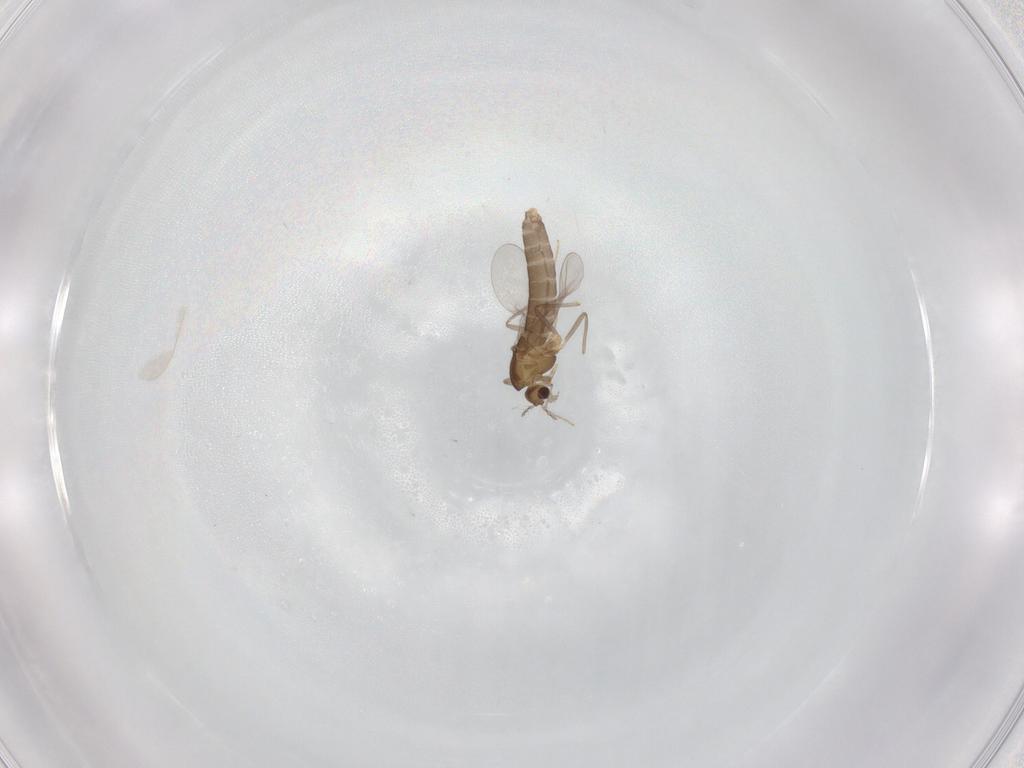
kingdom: Animalia
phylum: Arthropoda
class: Insecta
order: Diptera
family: Chironomidae
